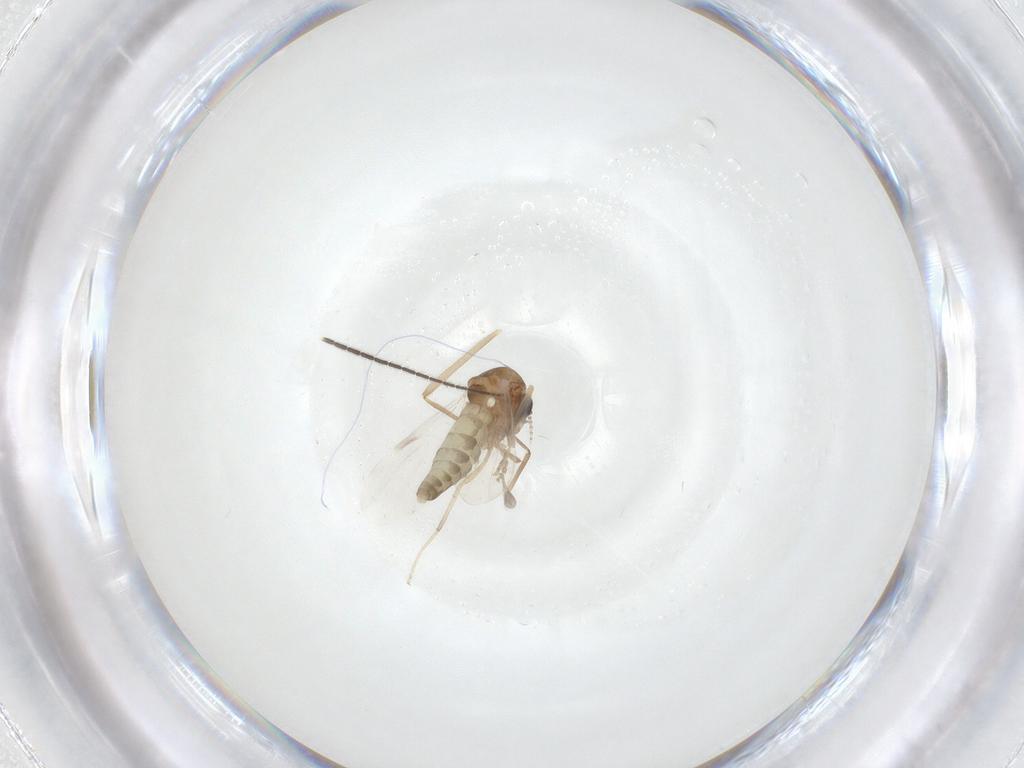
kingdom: Animalia
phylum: Arthropoda
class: Insecta
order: Diptera
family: Ceratopogonidae
